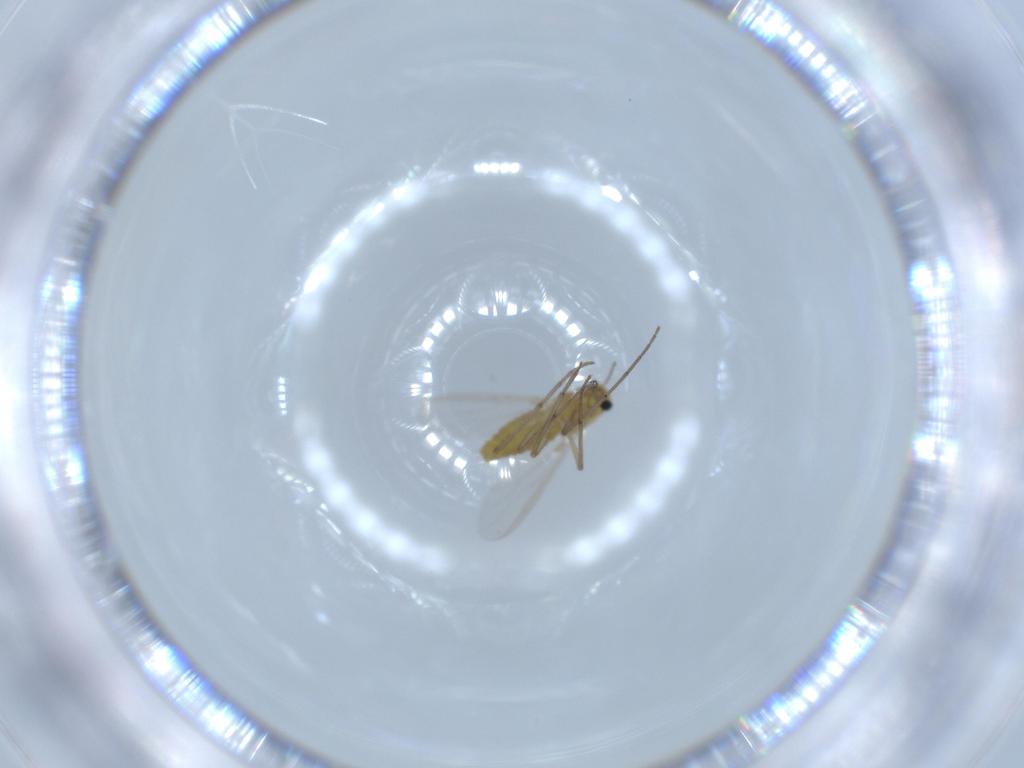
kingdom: Animalia
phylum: Arthropoda
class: Insecta
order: Diptera
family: Chironomidae
